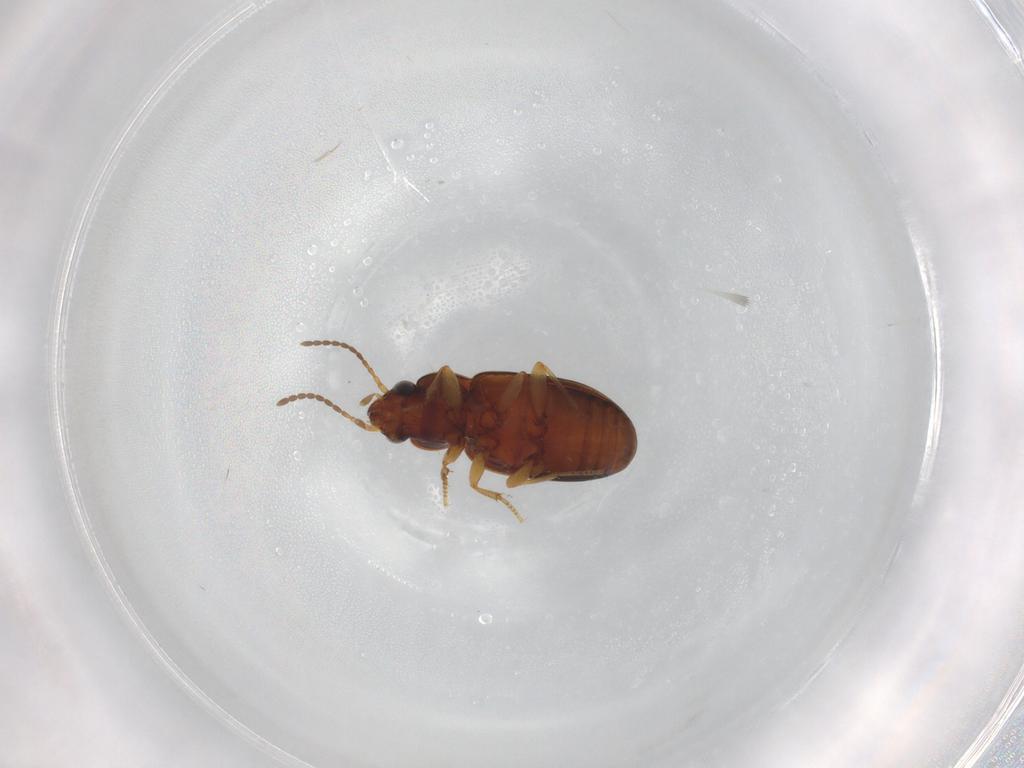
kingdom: Animalia
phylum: Arthropoda
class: Insecta
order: Coleoptera
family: Carabidae
